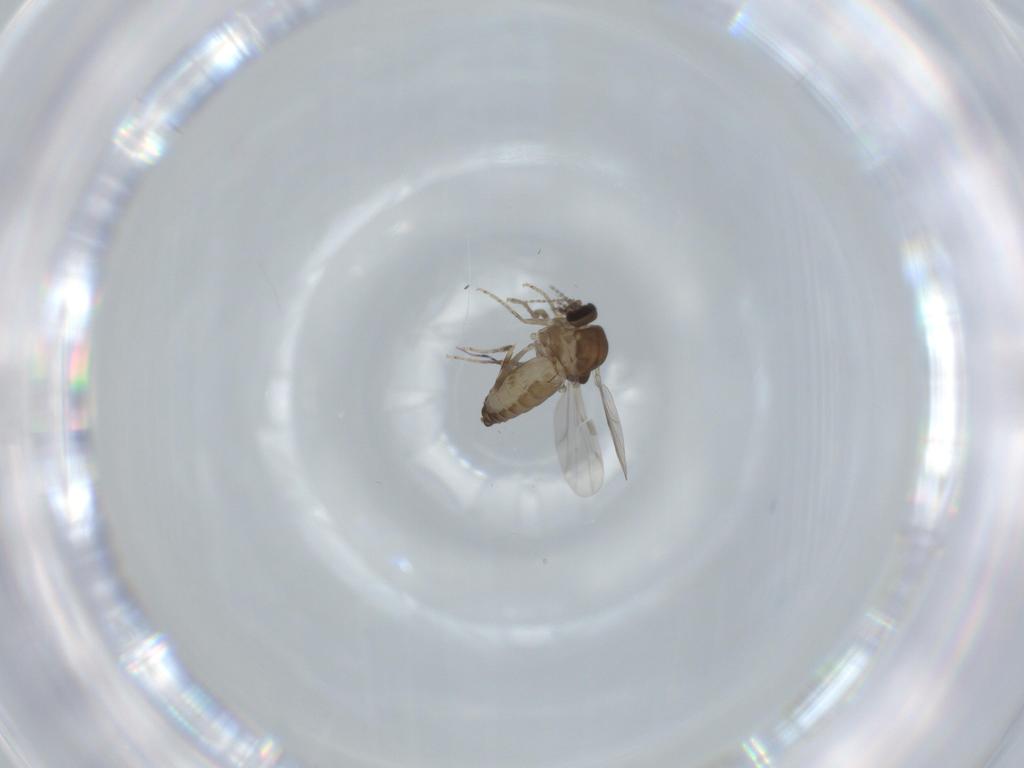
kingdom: Animalia
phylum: Arthropoda
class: Insecta
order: Diptera
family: Ceratopogonidae
